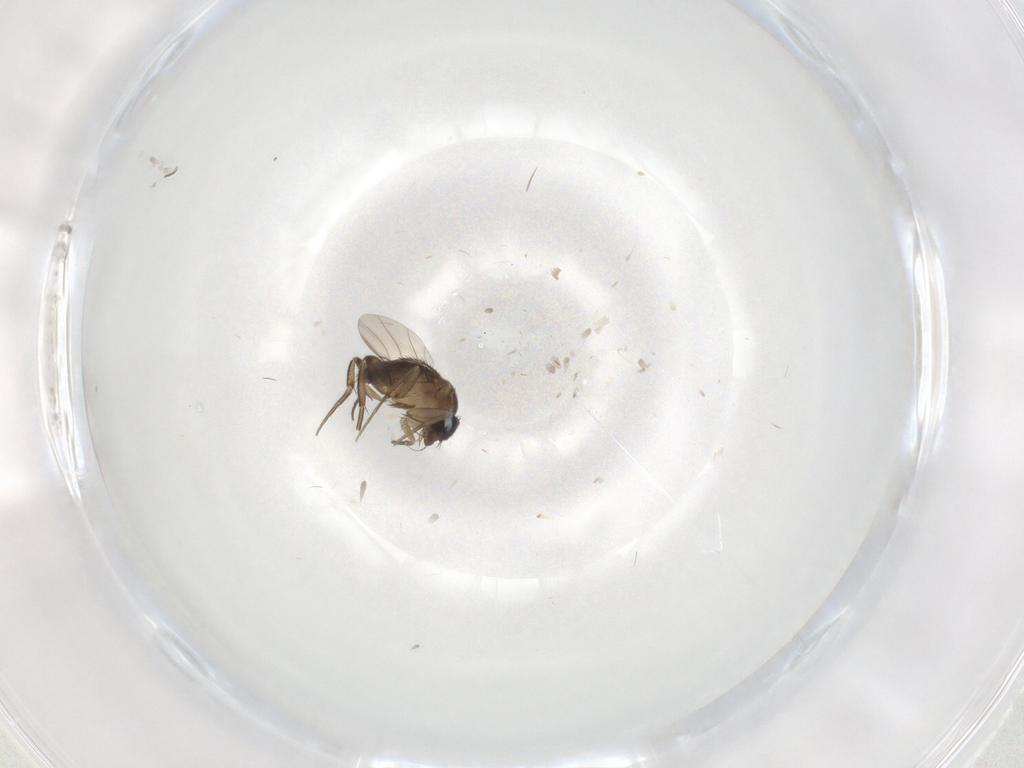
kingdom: Animalia
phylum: Arthropoda
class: Insecta
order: Diptera
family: Phoridae
